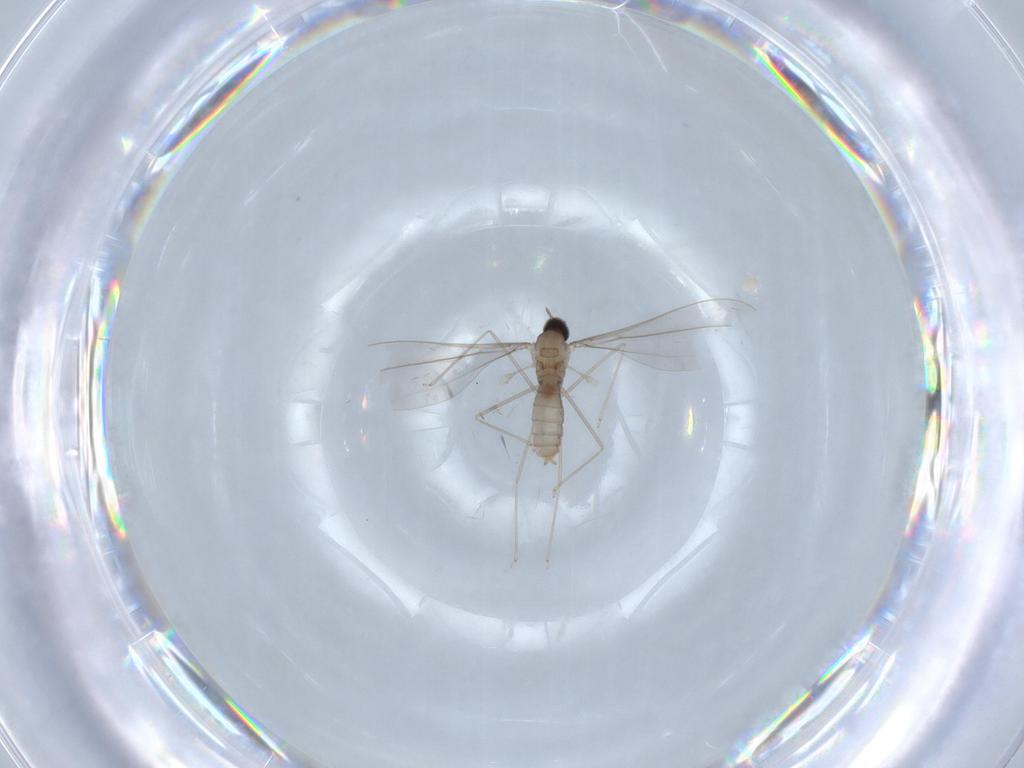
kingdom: Animalia
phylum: Arthropoda
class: Insecta
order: Diptera
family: Cecidomyiidae
